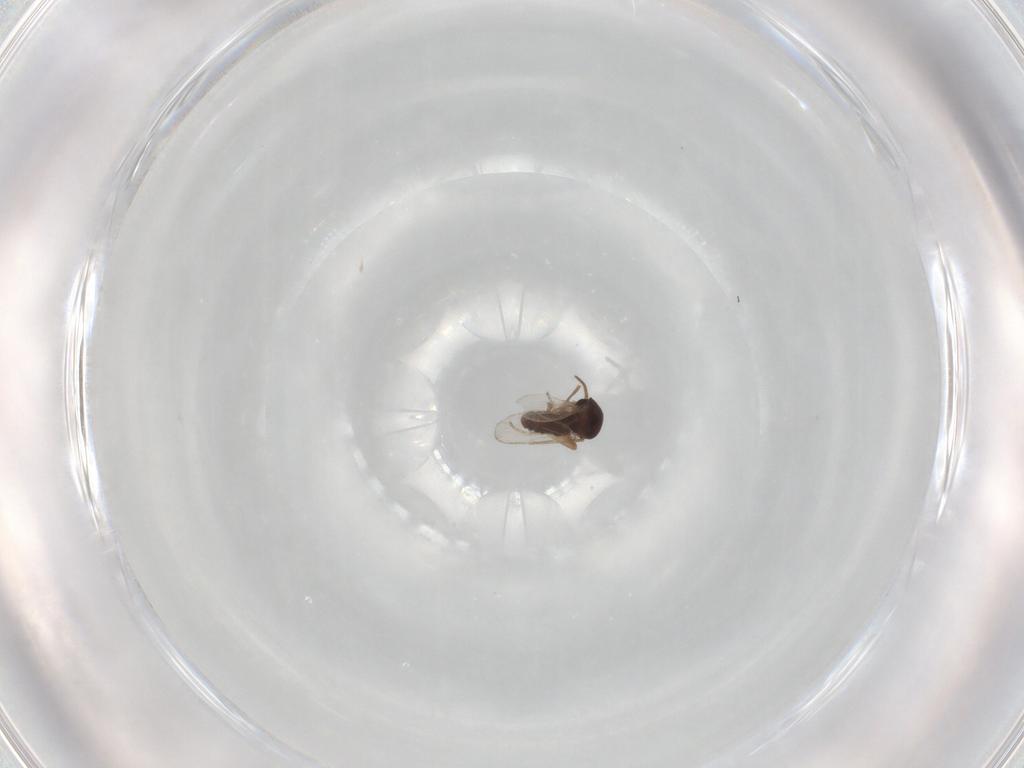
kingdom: Animalia
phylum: Arthropoda
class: Insecta
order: Diptera
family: Ceratopogonidae
